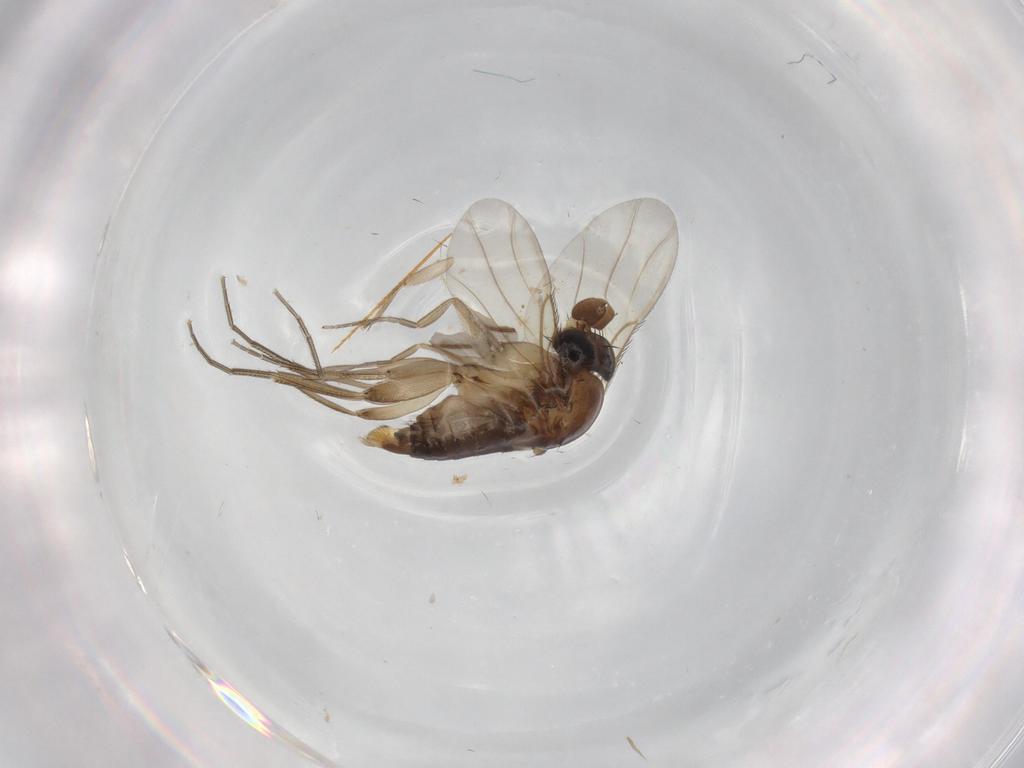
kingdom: Animalia
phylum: Arthropoda
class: Insecta
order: Diptera
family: Phoridae
